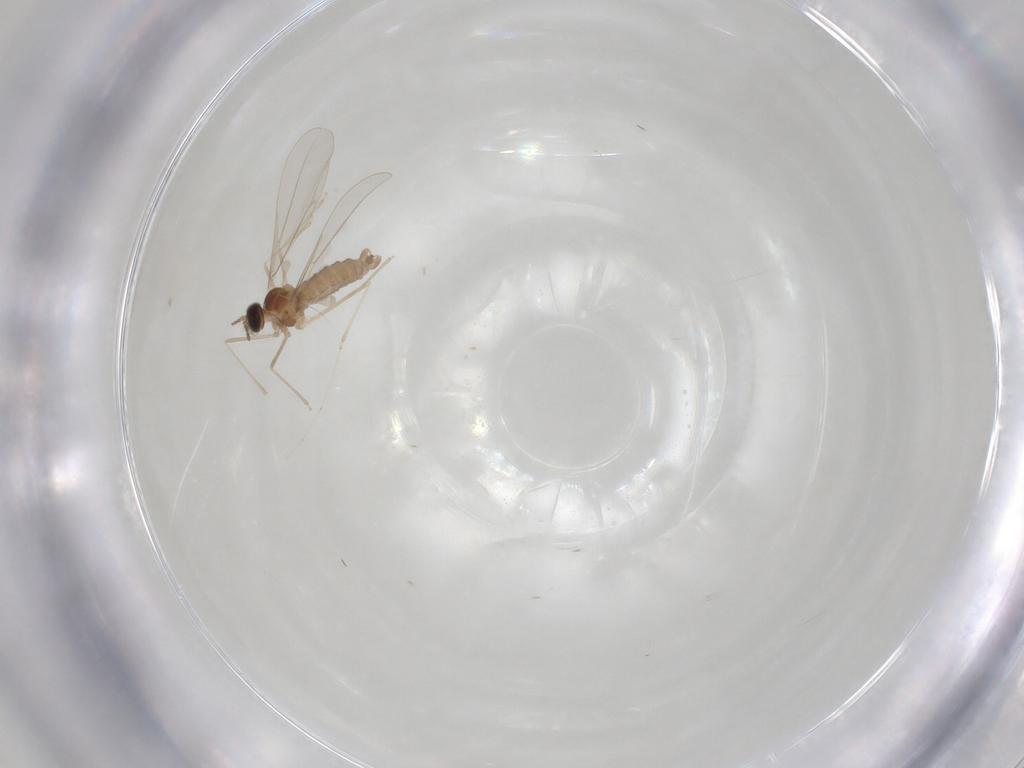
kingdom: Animalia
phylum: Arthropoda
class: Insecta
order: Diptera
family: Cecidomyiidae
